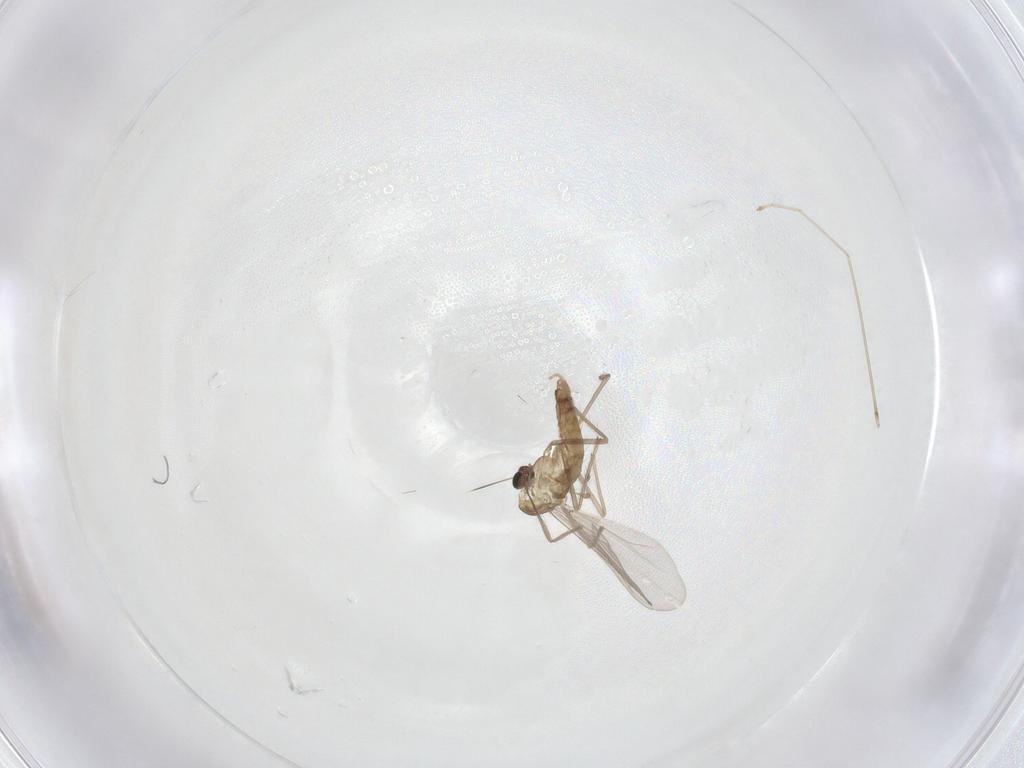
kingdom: Animalia
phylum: Arthropoda
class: Insecta
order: Diptera
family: Chironomidae
